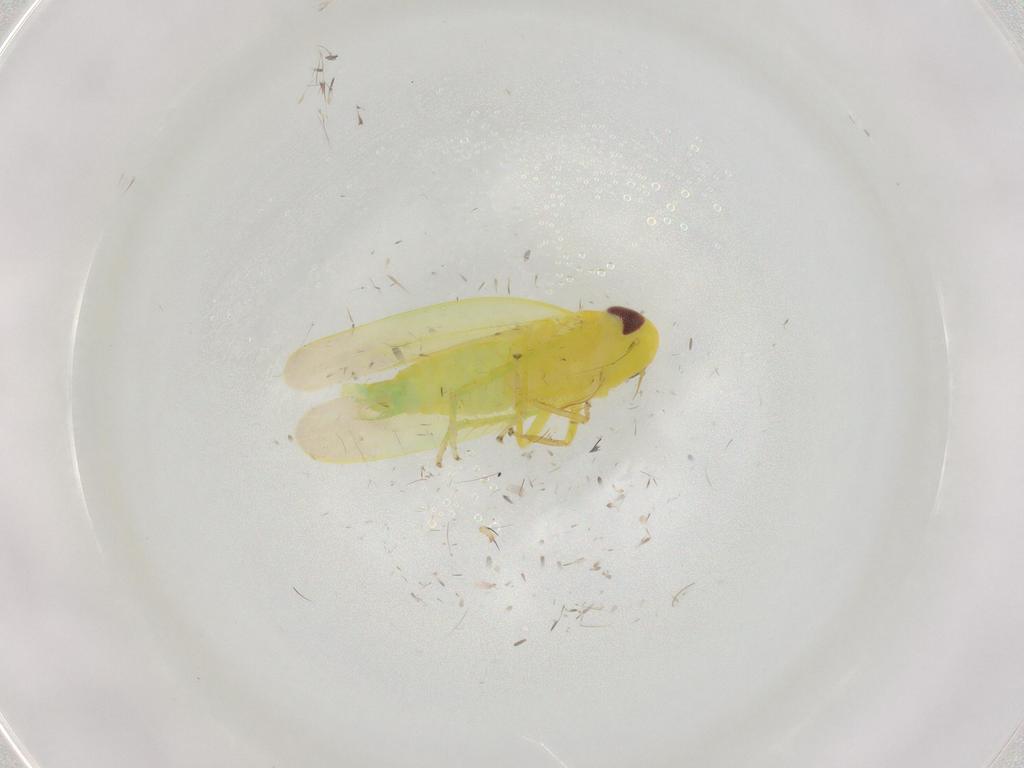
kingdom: Animalia
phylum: Arthropoda
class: Insecta
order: Hemiptera
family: Cicadellidae
